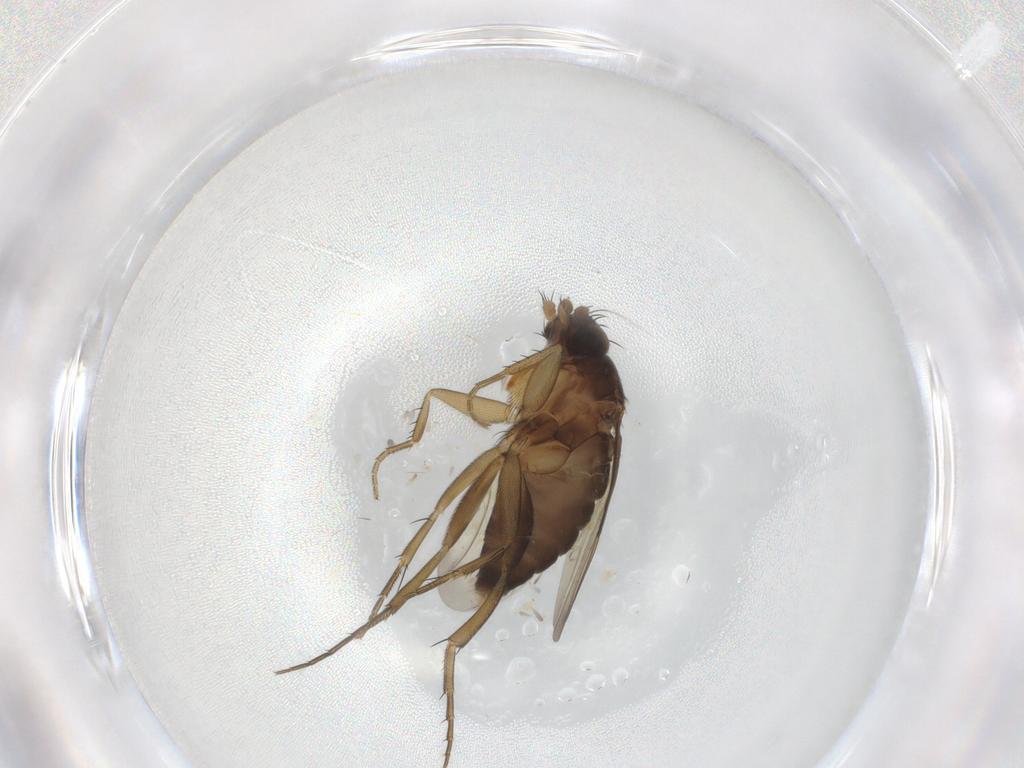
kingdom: Animalia
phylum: Arthropoda
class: Insecta
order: Diptera
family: Phoridae
